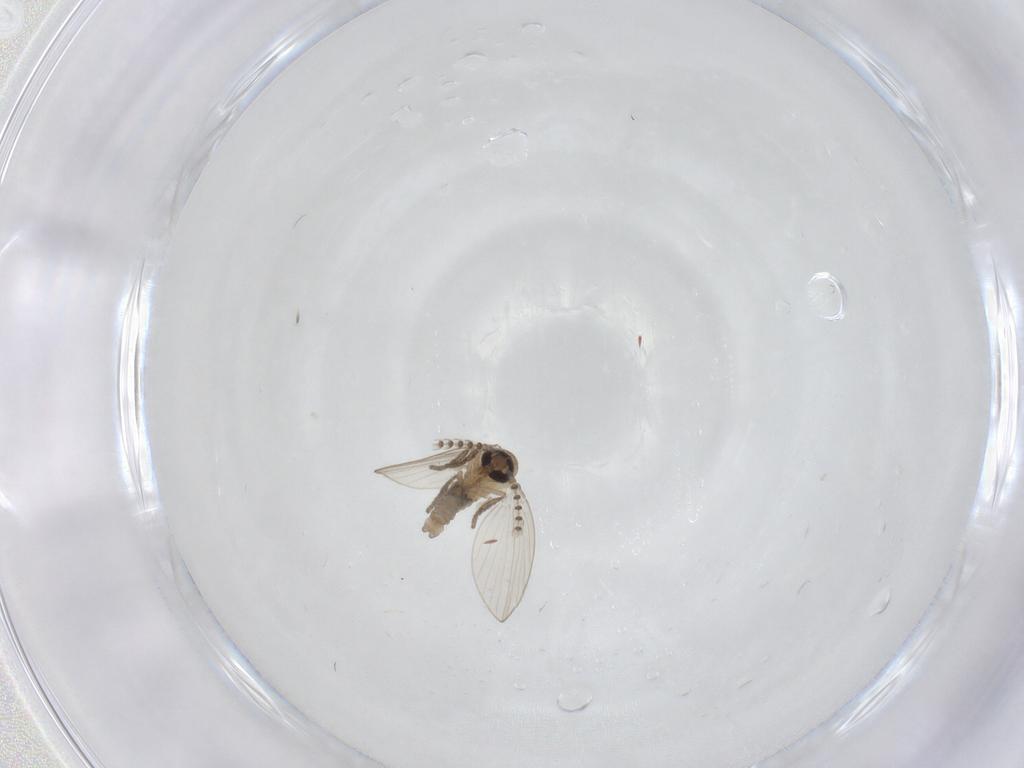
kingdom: Animalia
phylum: Arthropoda
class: Insecta
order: Diptera
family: Psychodidae
